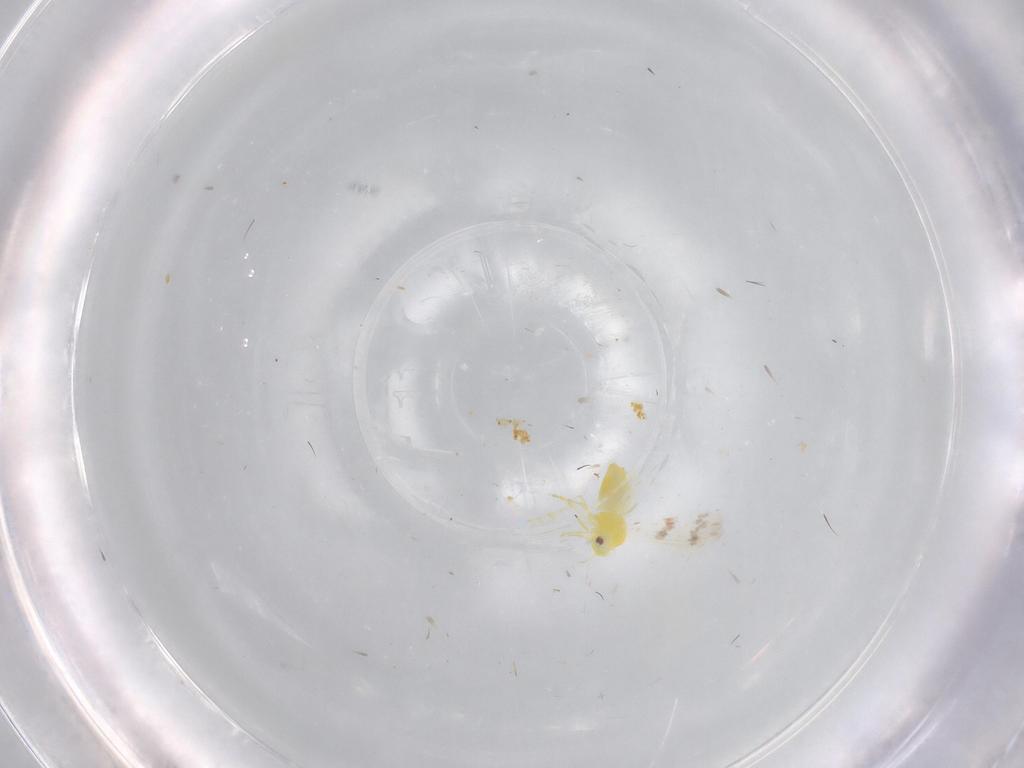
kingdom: Animalia
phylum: Arthropoda
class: Insecta
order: Hemiptera
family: Aleyrodidae
